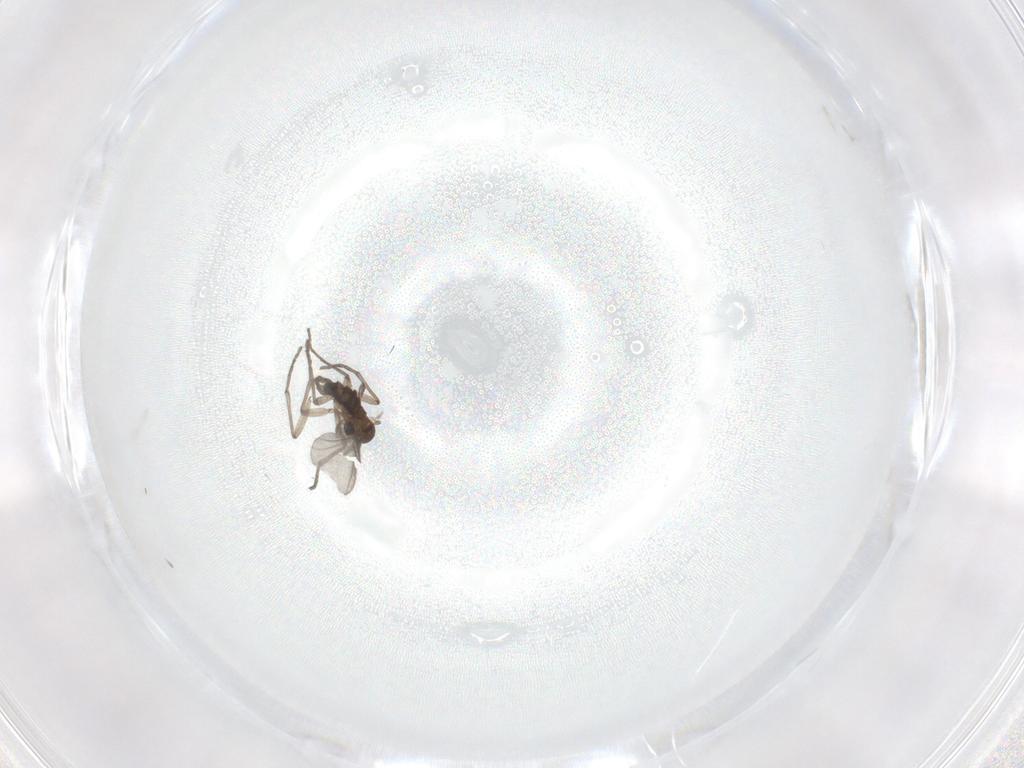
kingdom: Animalia
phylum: Arthropoda
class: Insecta
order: Diptera
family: Sciaridae
